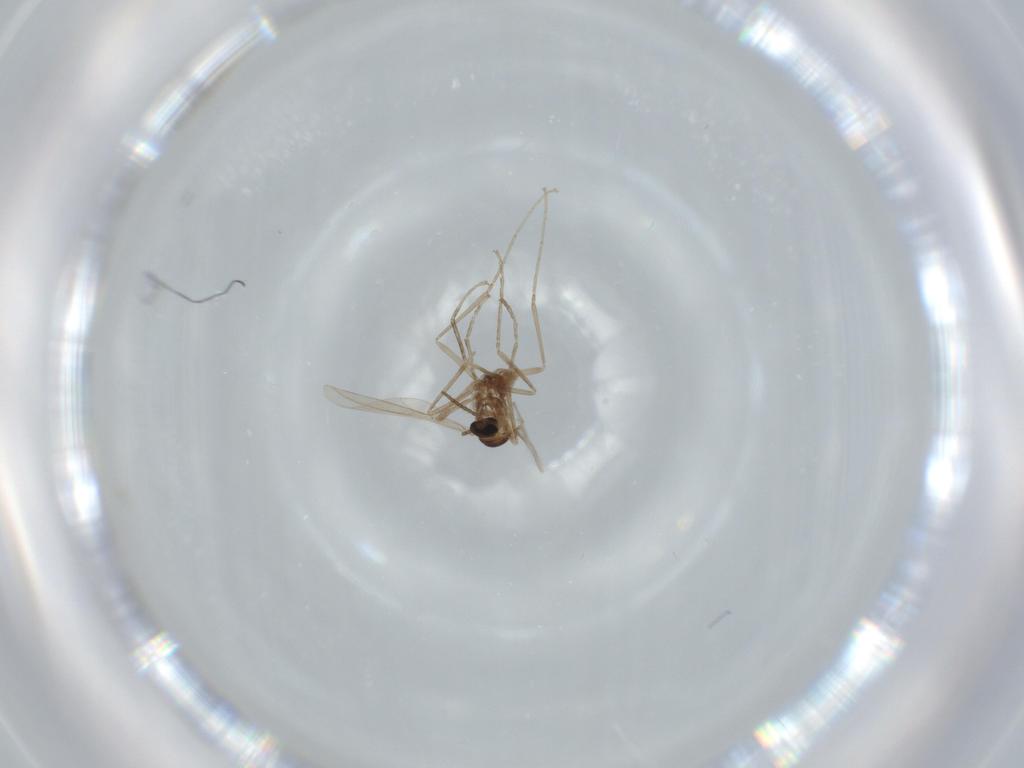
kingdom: Animalia
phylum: Arthropoda
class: Insecta
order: Diptera
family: Cecidomyiidae
